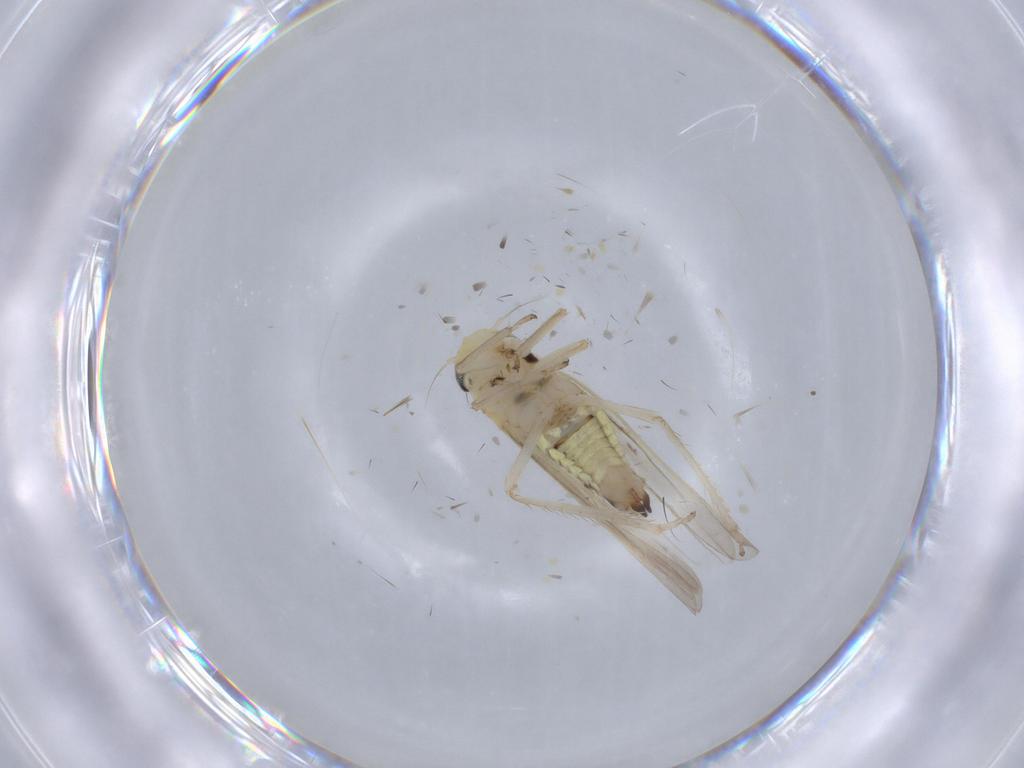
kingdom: Animalia
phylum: Arthropoda
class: Insecta
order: Hemiptera
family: Cicadellidae
